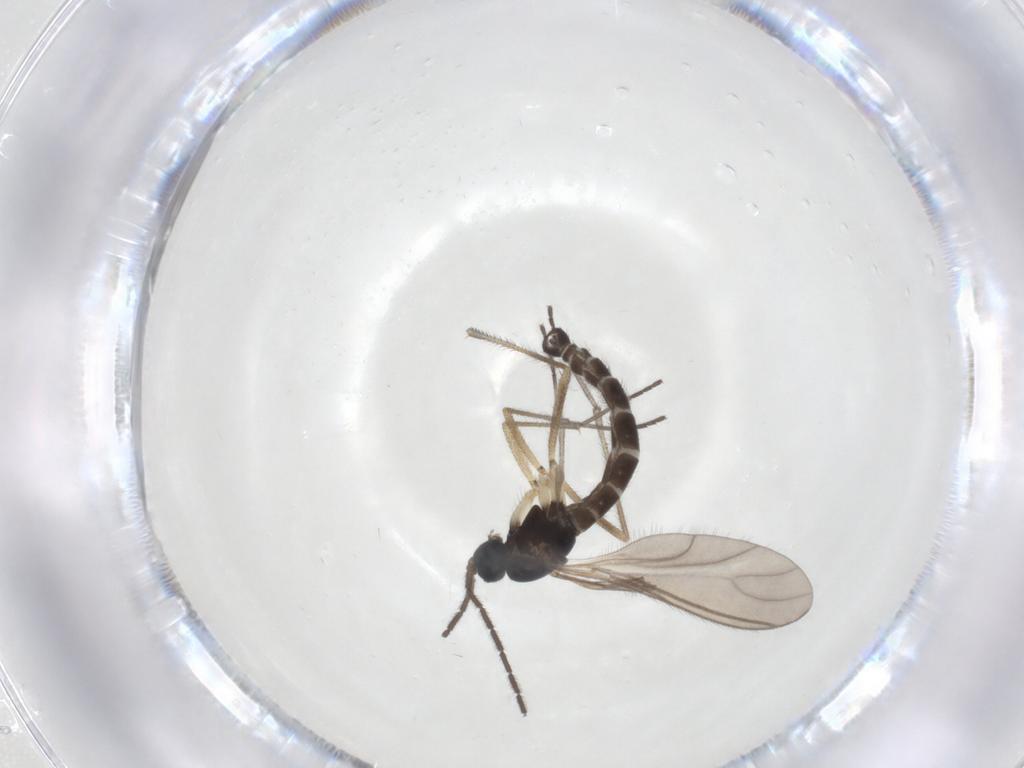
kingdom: Animalia
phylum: Arthropoda
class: Insecta
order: Diptera
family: Sciaridae
